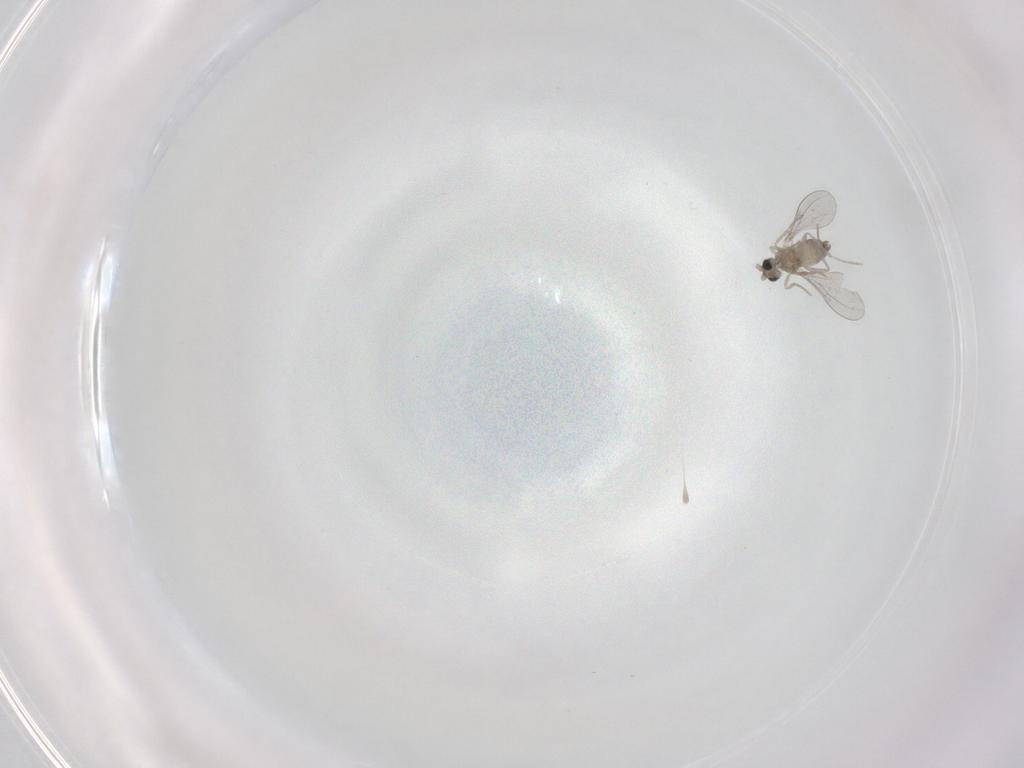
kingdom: Animalia
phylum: Arthropoda
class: Insecta
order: Diptera
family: Cecidomyiidae
